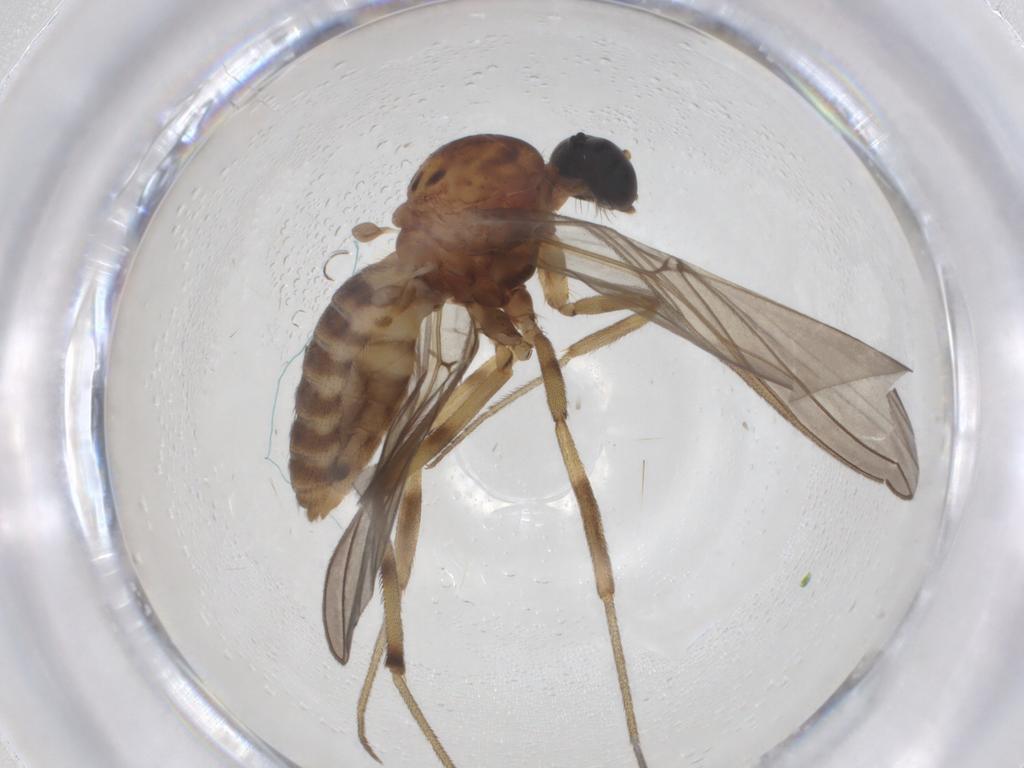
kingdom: Animalia
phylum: Arthropoda
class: Insecta
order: Diptera
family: Anisopodidae
